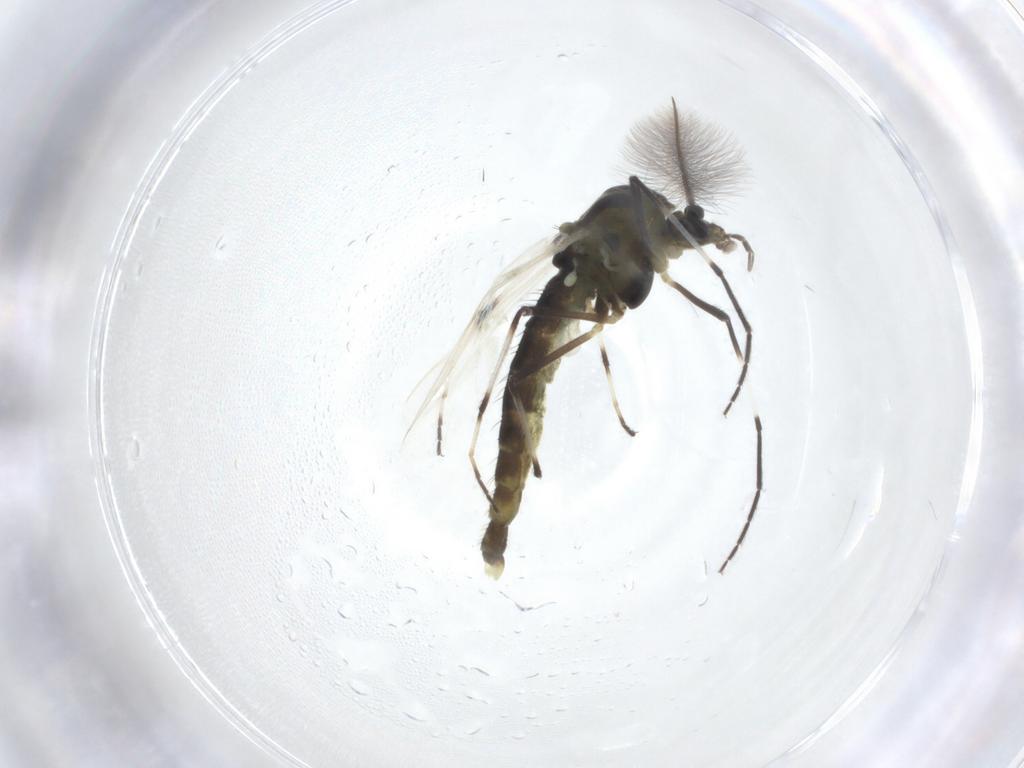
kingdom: Animalia
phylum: Arthropoda
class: Insecta
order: Diptera
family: Chironomidae
